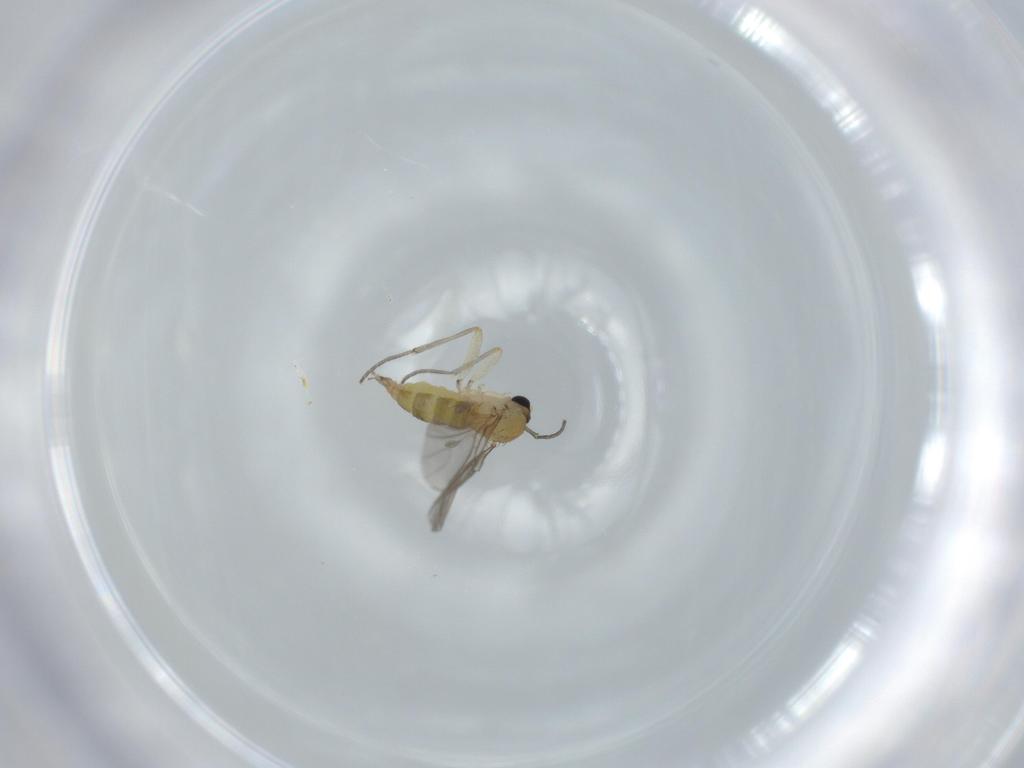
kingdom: Animalia
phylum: Arthropoda
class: Insecta
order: Diptera
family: Sciaridae
